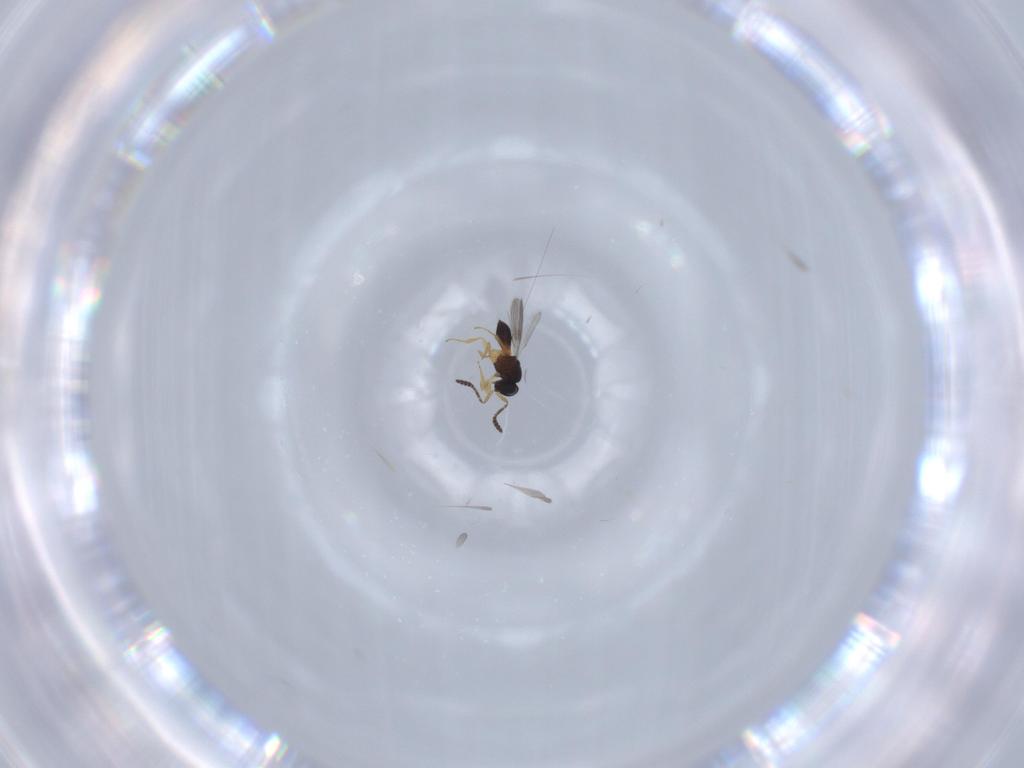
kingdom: Animalia
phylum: Arthropoda
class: Insecta
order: Hymenoptera
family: Scelionidae
